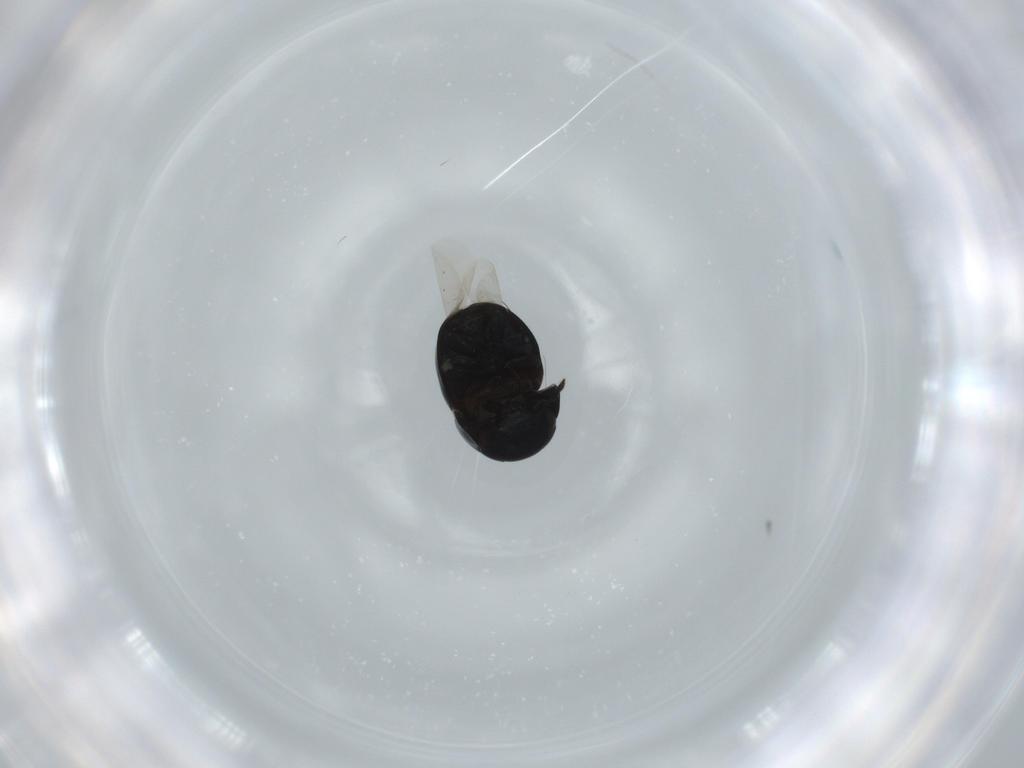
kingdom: Animalia
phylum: Arthropoda
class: Insecta
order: Coleoptera
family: Cybocephalidae
